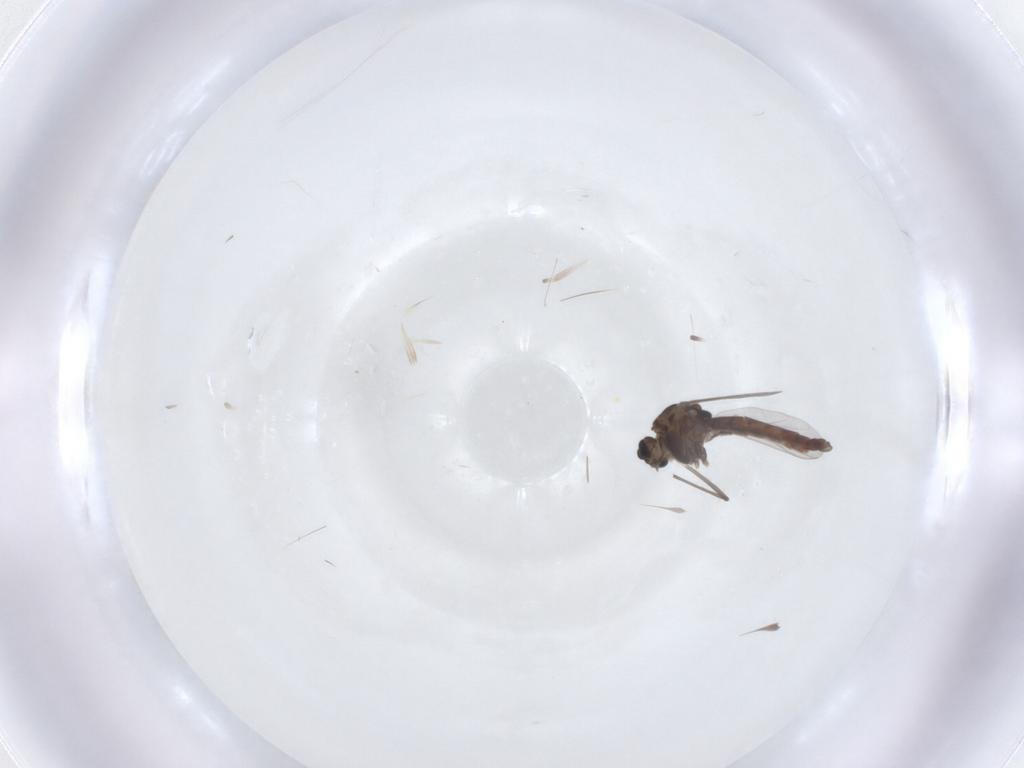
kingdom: Animalia
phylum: Arthropoda
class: Insecta
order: Diptera
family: Chironomidae
